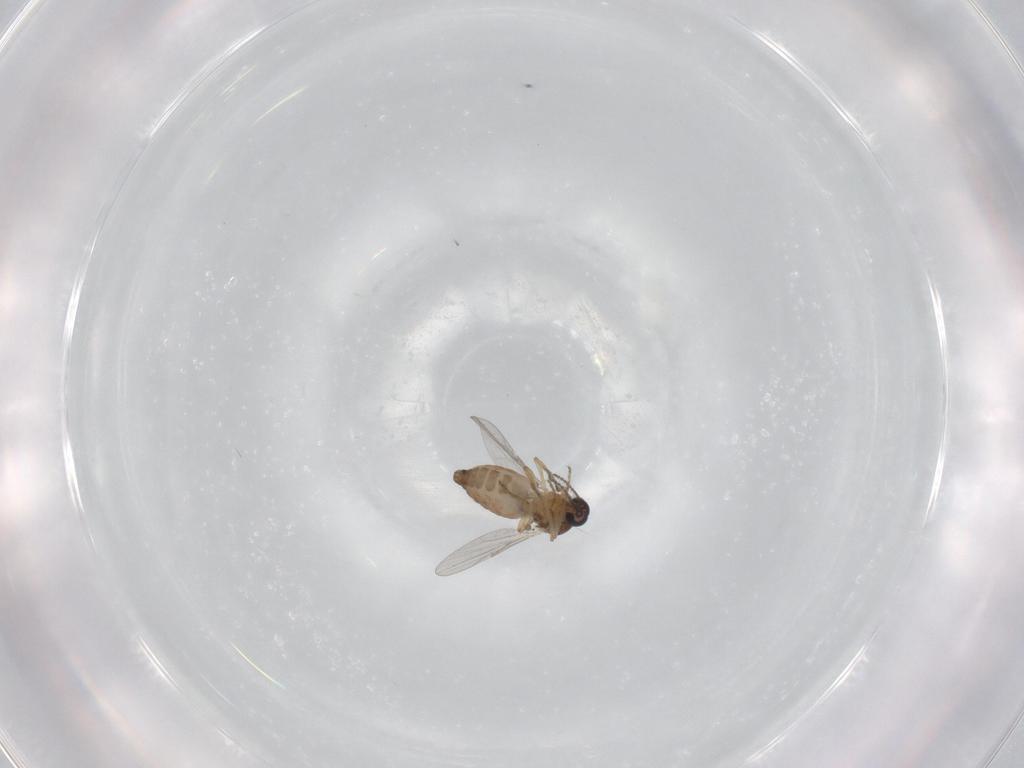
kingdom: Animalia
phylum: Arthropoda
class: Insecta
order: Diptera
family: Ceratopogonidae
